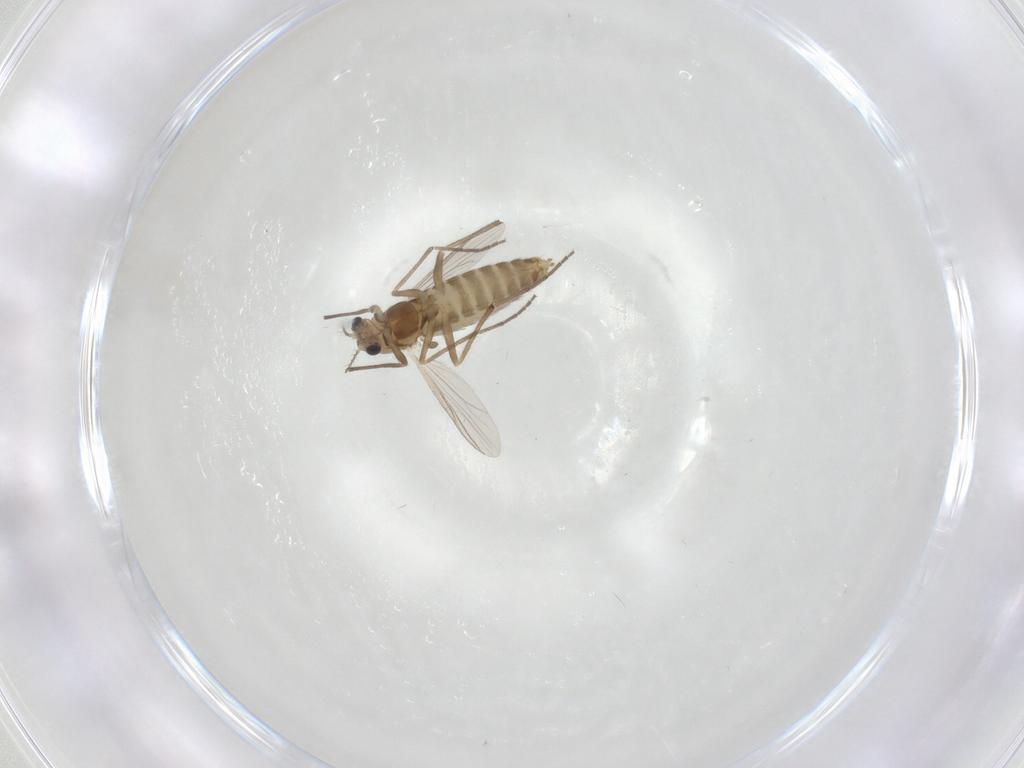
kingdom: Animalia
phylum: Arthropoda
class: Insecta
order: Diptera
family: Chironomidae
